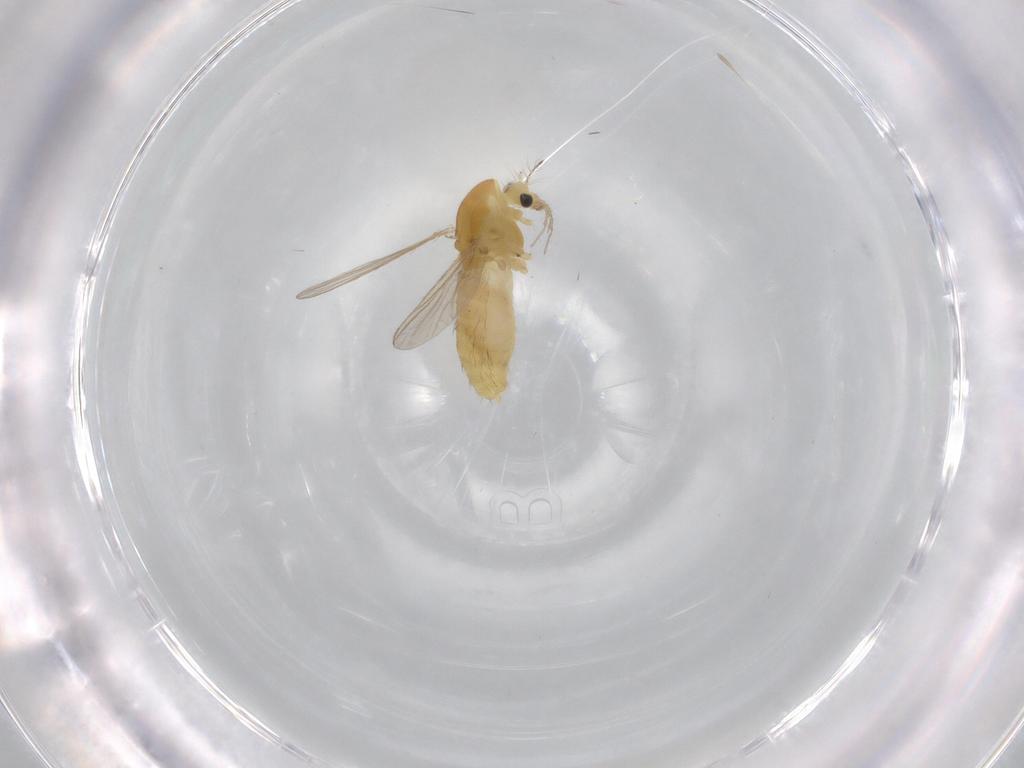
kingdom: Animalia
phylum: Arthropoda
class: Insecta
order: Diptera
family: Chironomidae
